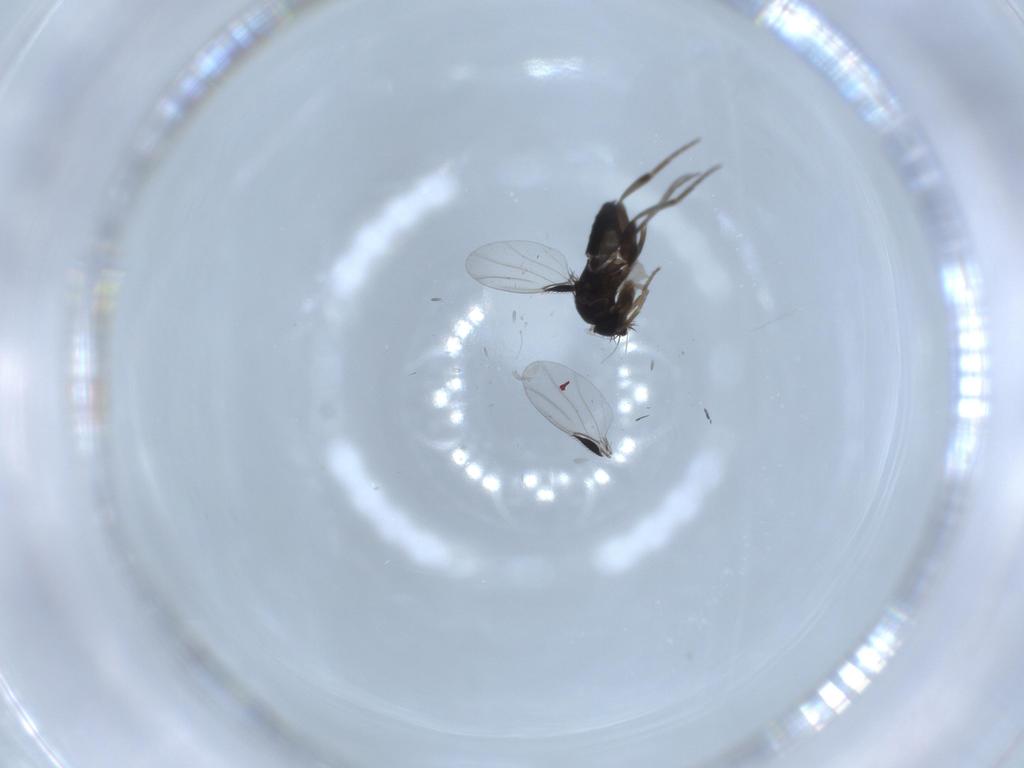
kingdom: Animalia
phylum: Arthropoda
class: Insecta
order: Diptera
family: Phoridae
